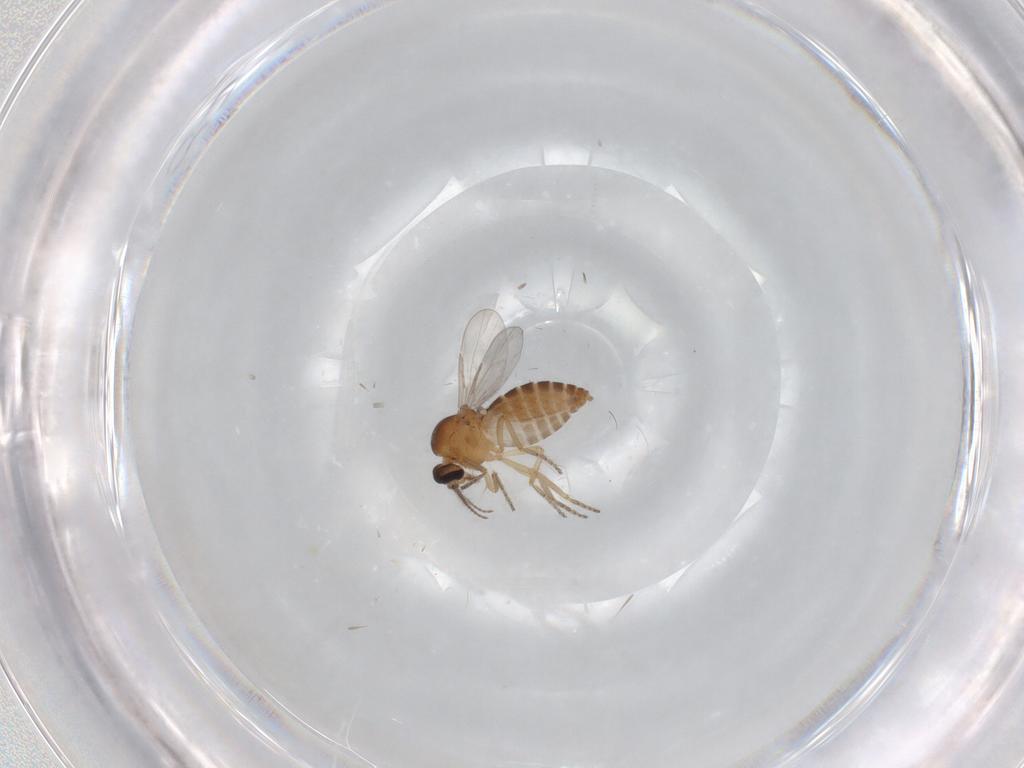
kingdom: Animalia
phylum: Arthropoda
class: Insecta
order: Diptera
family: Ceratopogonidae
